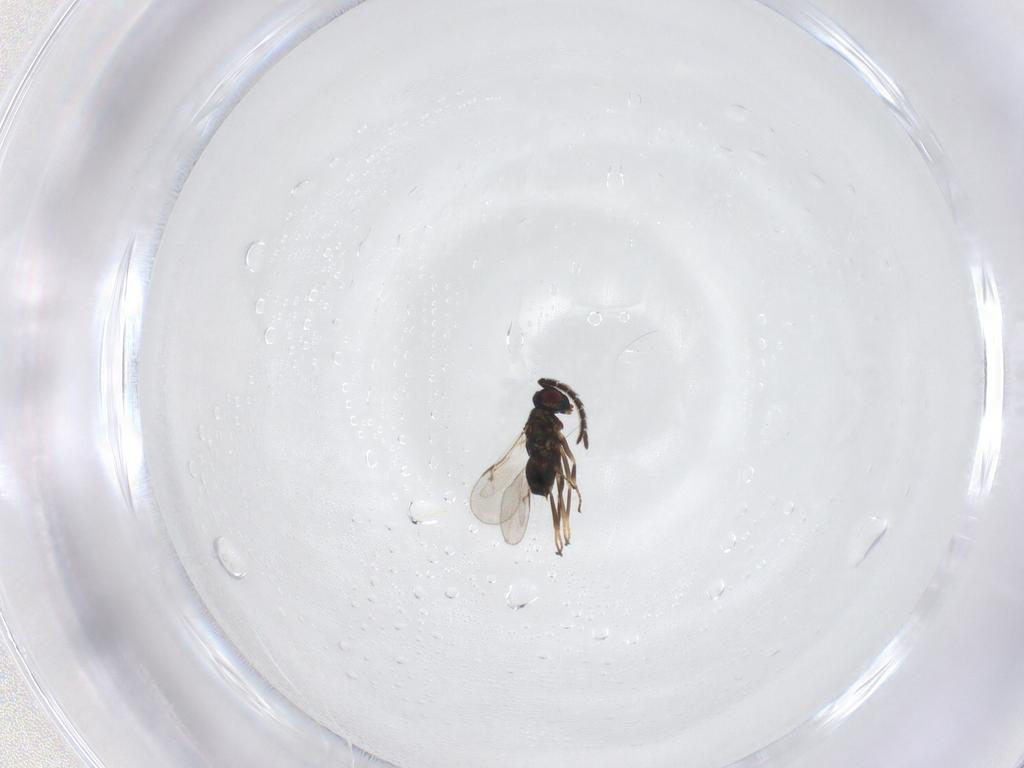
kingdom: Animalia
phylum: Arthropoda
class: Insecta
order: Hymenoptera
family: Encyrtidae
